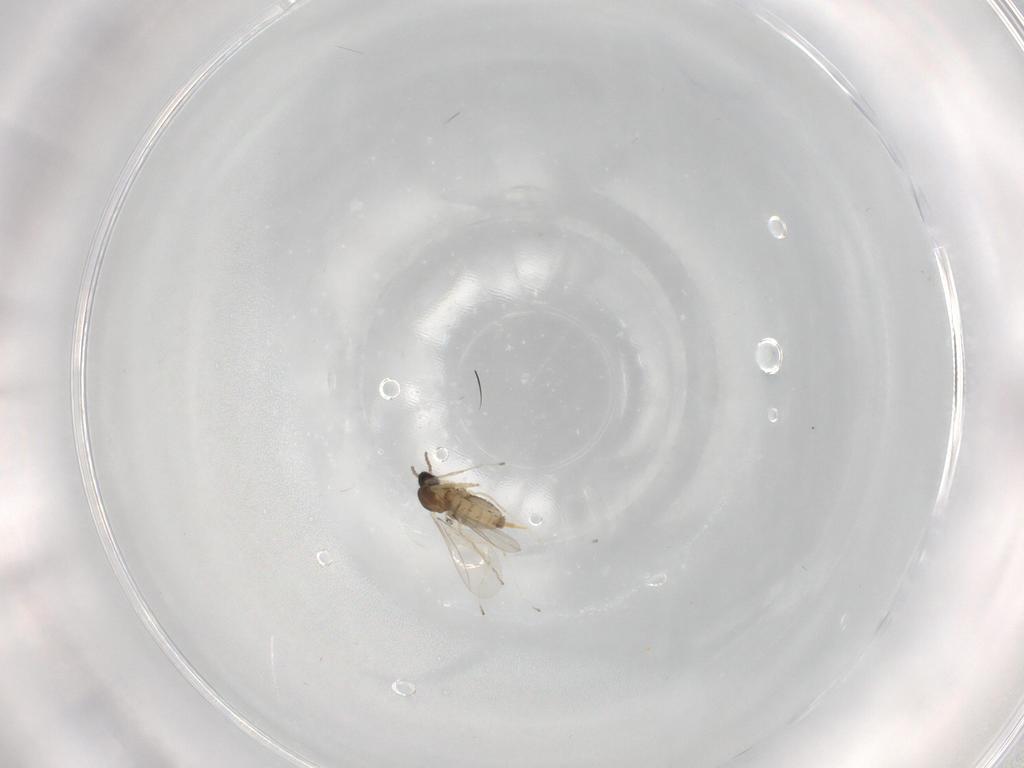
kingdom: Animalia
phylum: Arthropoda
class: Insecta
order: Diptera
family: Cecidomyiidae
